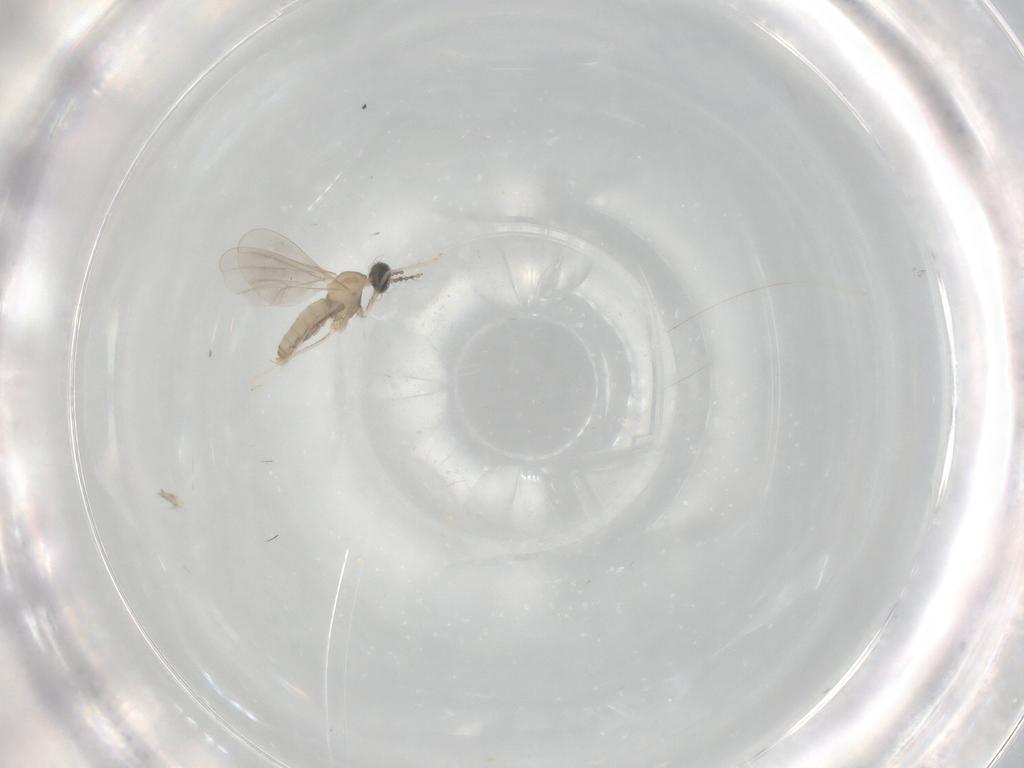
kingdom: Animalia
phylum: Arthropoda
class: Insecta
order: Diptera
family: Cecidomyiidae
